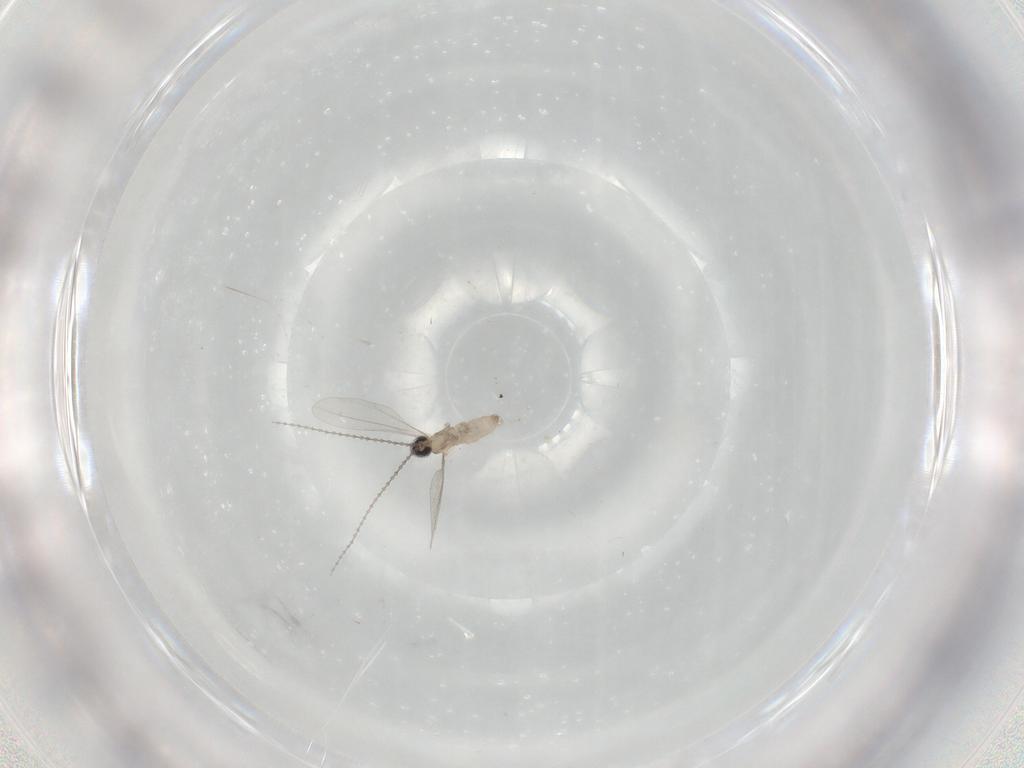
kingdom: Animalia
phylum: Arthropoda
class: Insecta
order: Diptera
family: Cecidomyiidae
